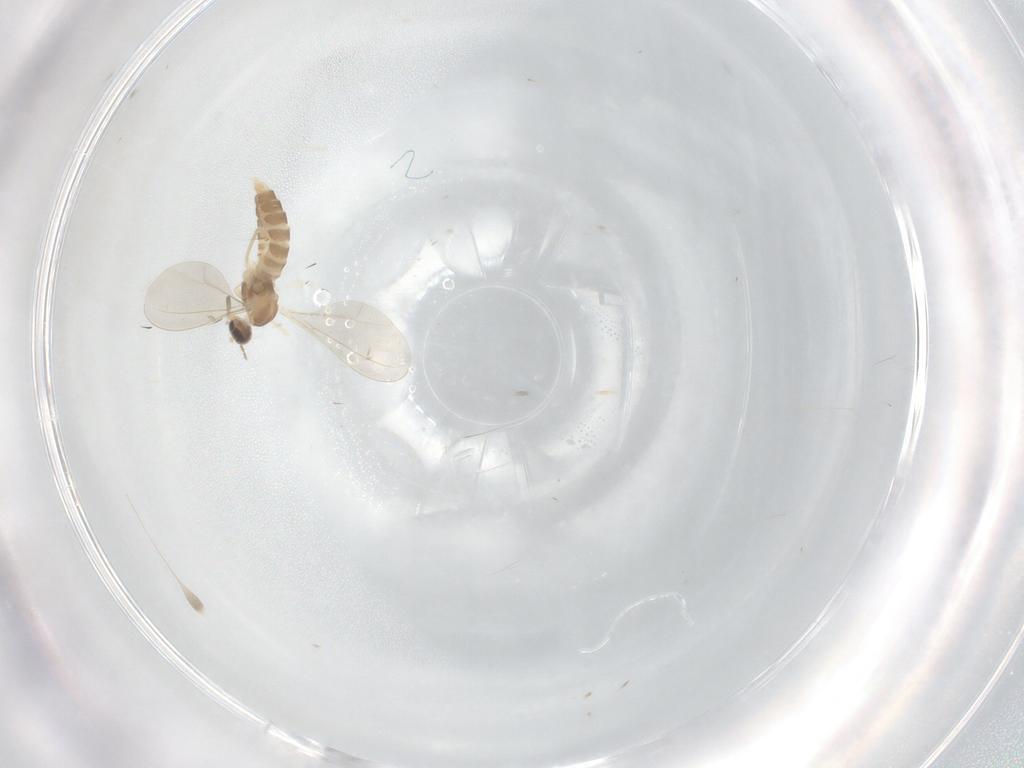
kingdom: Animalia
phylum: Arthropoda
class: Insecta
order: Diptera
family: Cecidomyiidae
